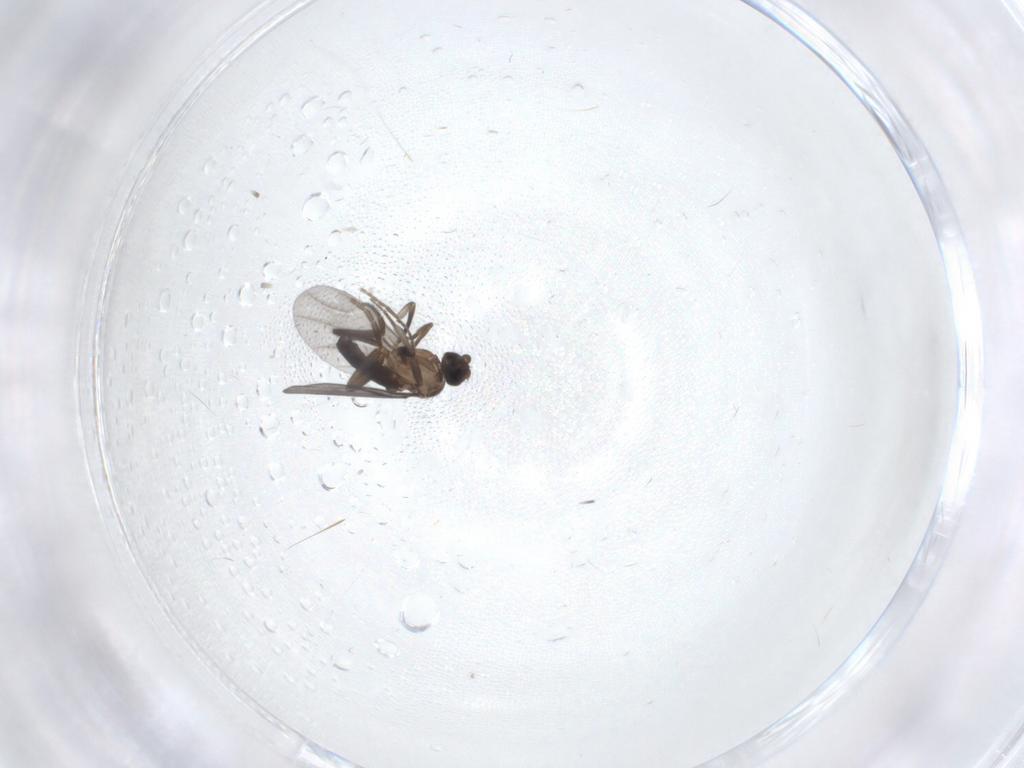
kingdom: Animalia
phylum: Arthropoda
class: Insecta
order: Diptera
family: Phoridae
